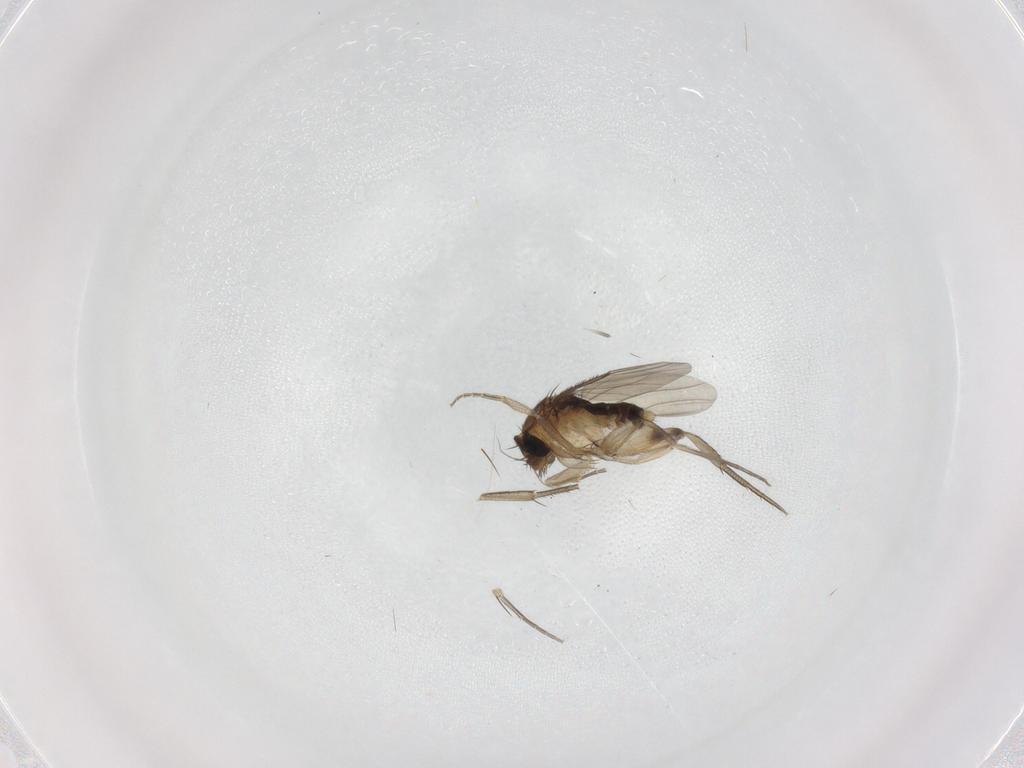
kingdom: Animalia
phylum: Arthropoda
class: Insecta
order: Diptera
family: Phoridae
